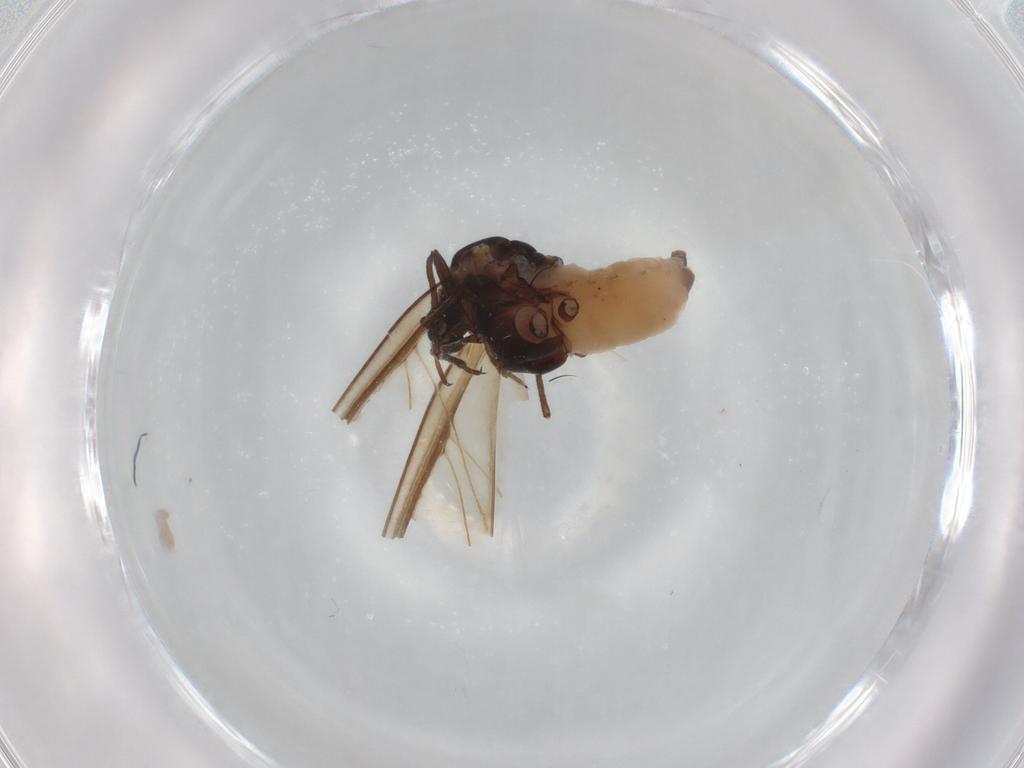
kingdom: Animalia
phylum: Arthropoda
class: Insecta
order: Hemiptera
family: Aphididae
